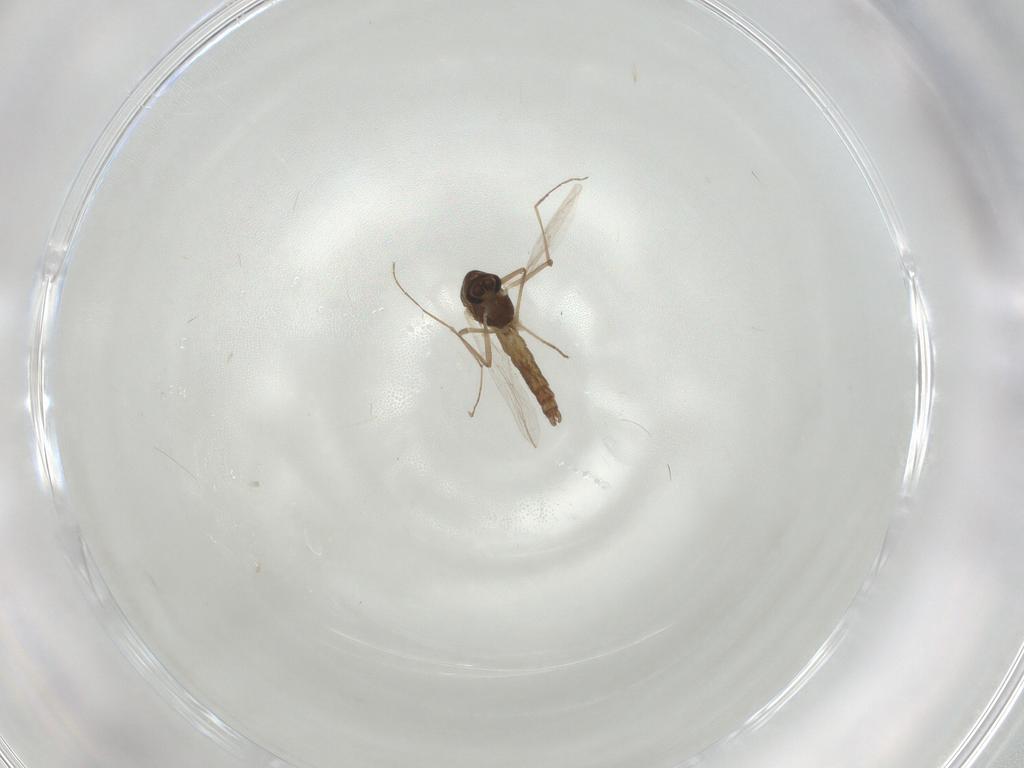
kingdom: Animalia
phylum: Arthropoda
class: Insecta
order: Diptera
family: Chironomidae
